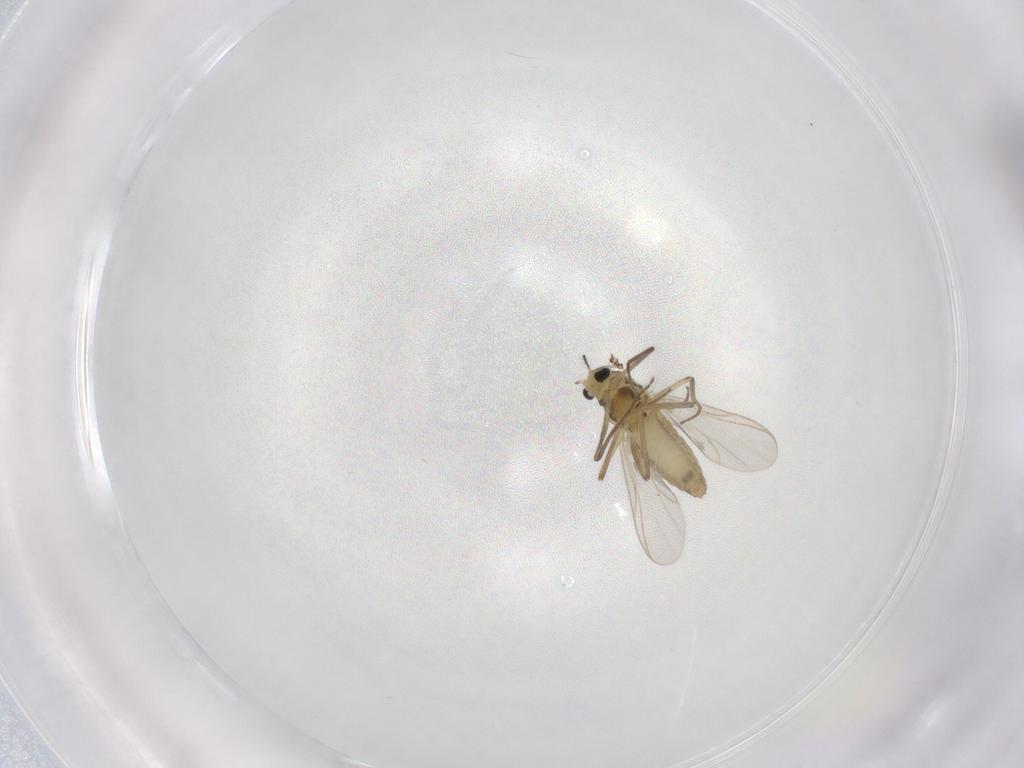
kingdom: Animalia
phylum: Arthropoda
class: Insecta
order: Diptera
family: Chironomidae
